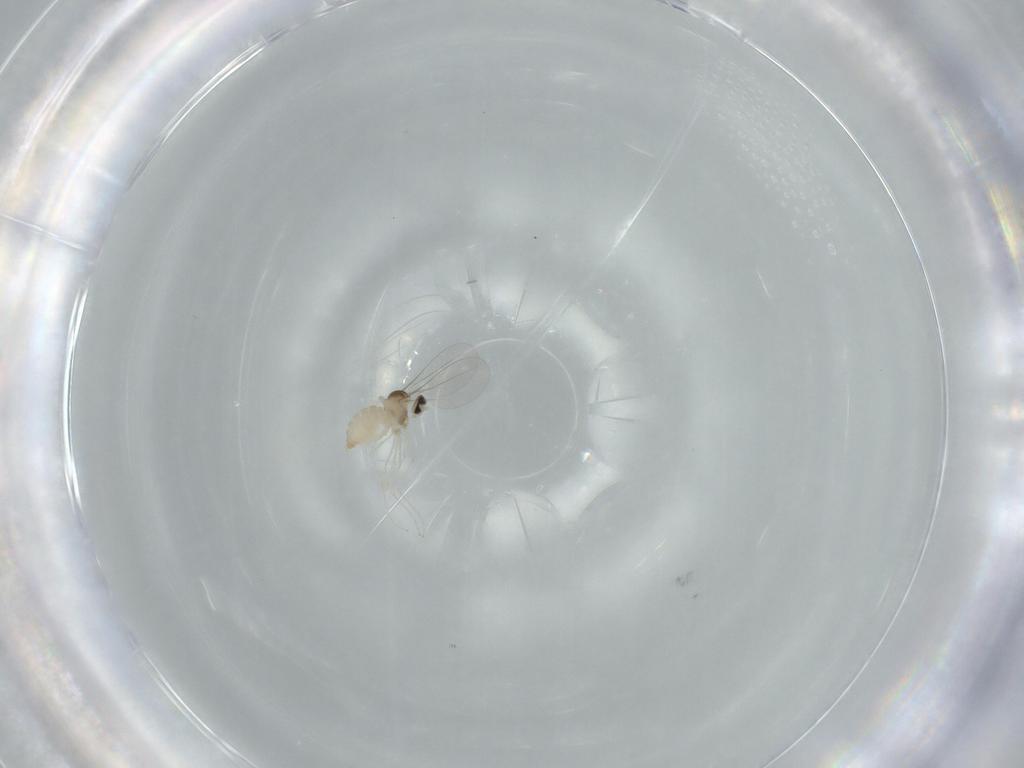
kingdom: Animalia
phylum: Arthropoda
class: Insecta
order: Diptera
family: Cecidomyiidae
